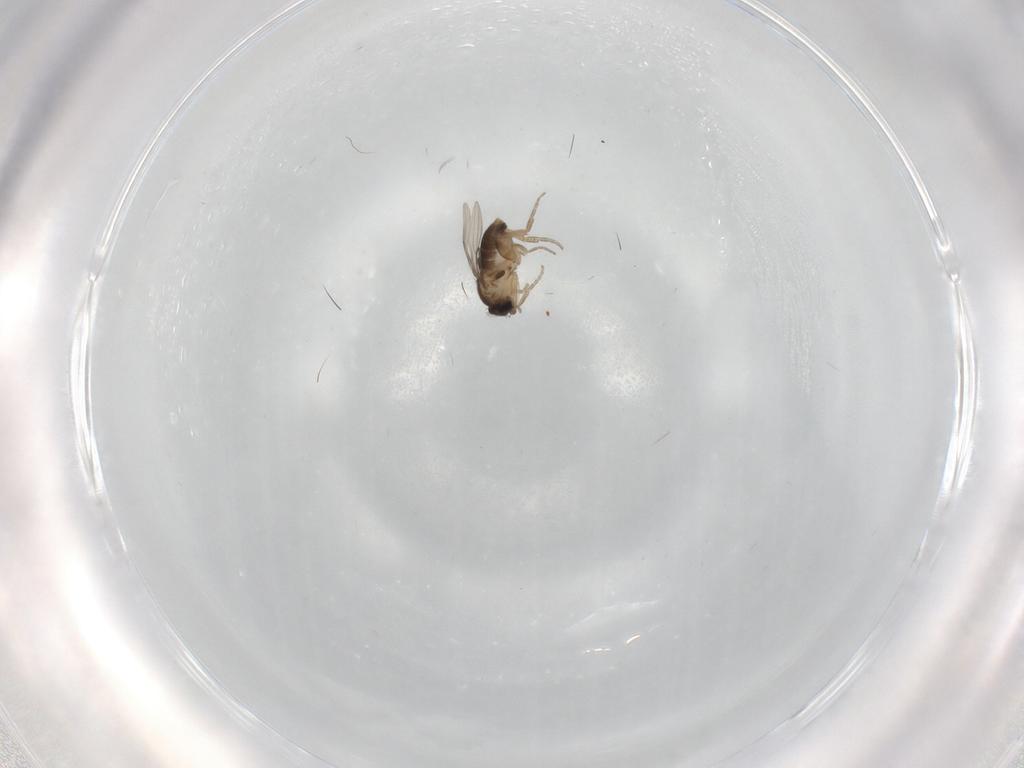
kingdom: Animalia
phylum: Arthropoda
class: Insecta
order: Diptera
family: Phoridae
